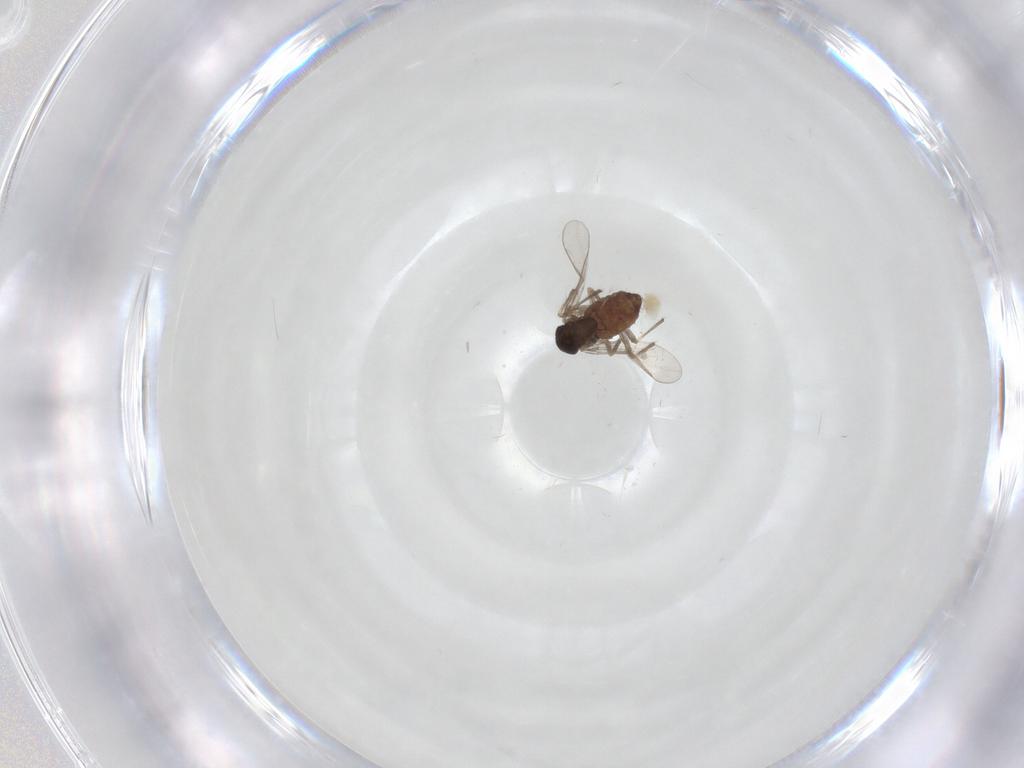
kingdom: Animalia
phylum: Arthropoda
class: Insecta
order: Diptera
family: Chironomidae
